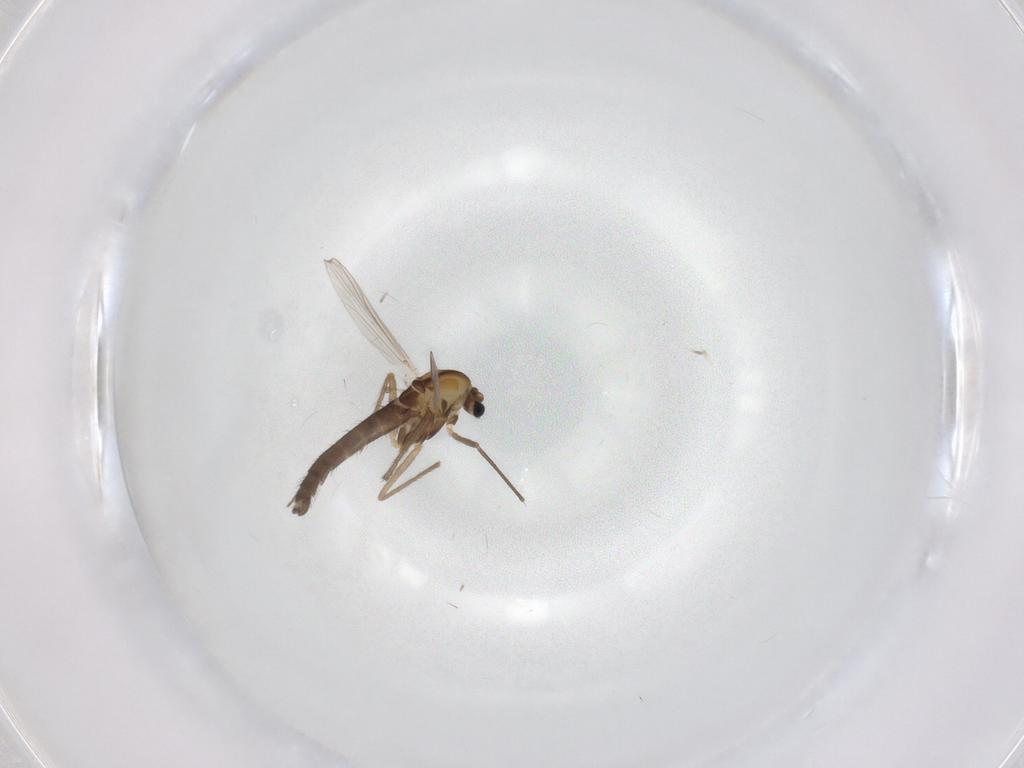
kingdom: Animalia
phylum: Arthropoda
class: Insecta
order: Diptera
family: Chironomidae
